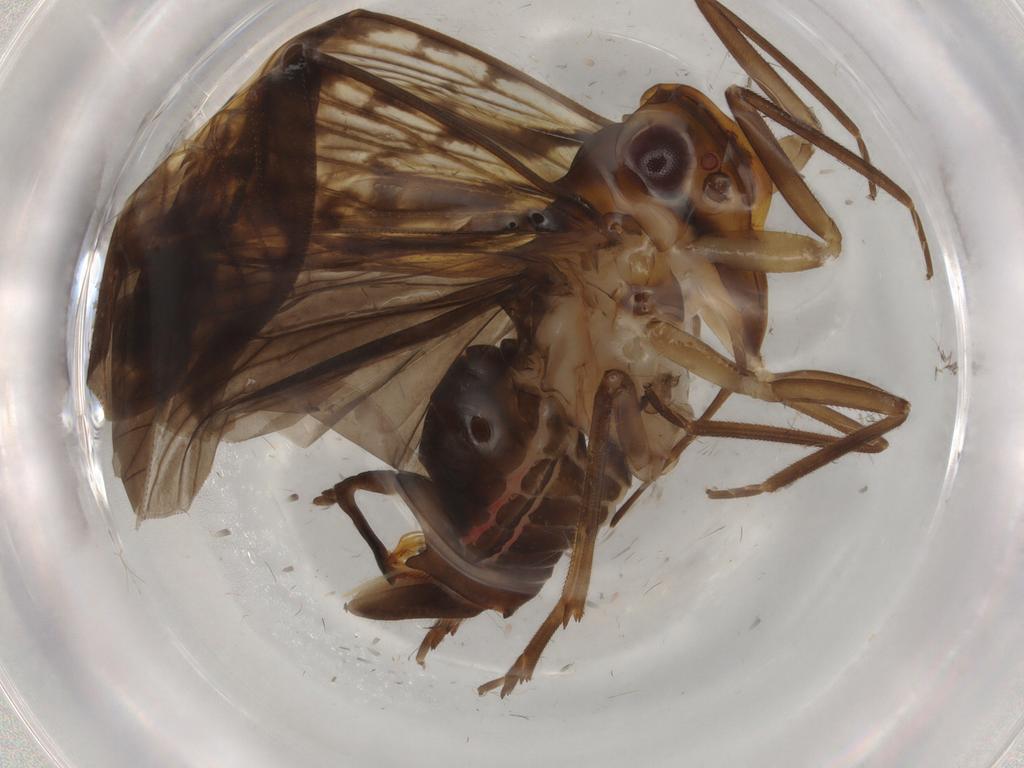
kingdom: Animalia
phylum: Arthropoda
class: Insecta
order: Hemiptera
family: Cixiidae
